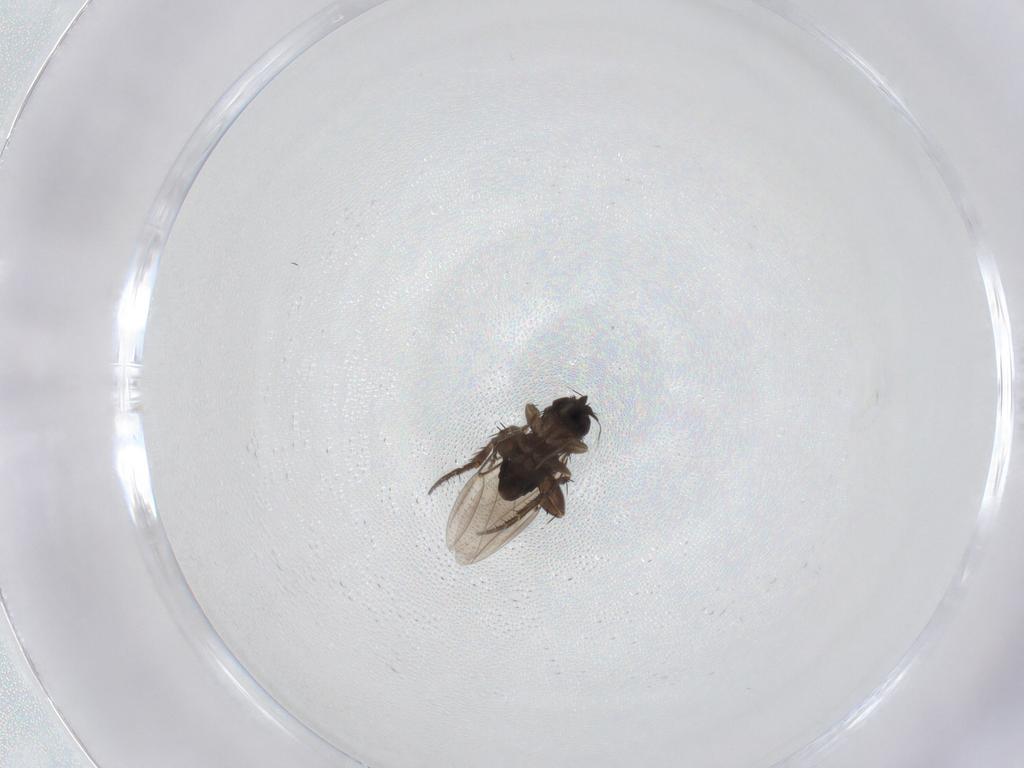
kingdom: Animalia
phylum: Arthropoda
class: Insecta
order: Diptera
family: Phoridae
